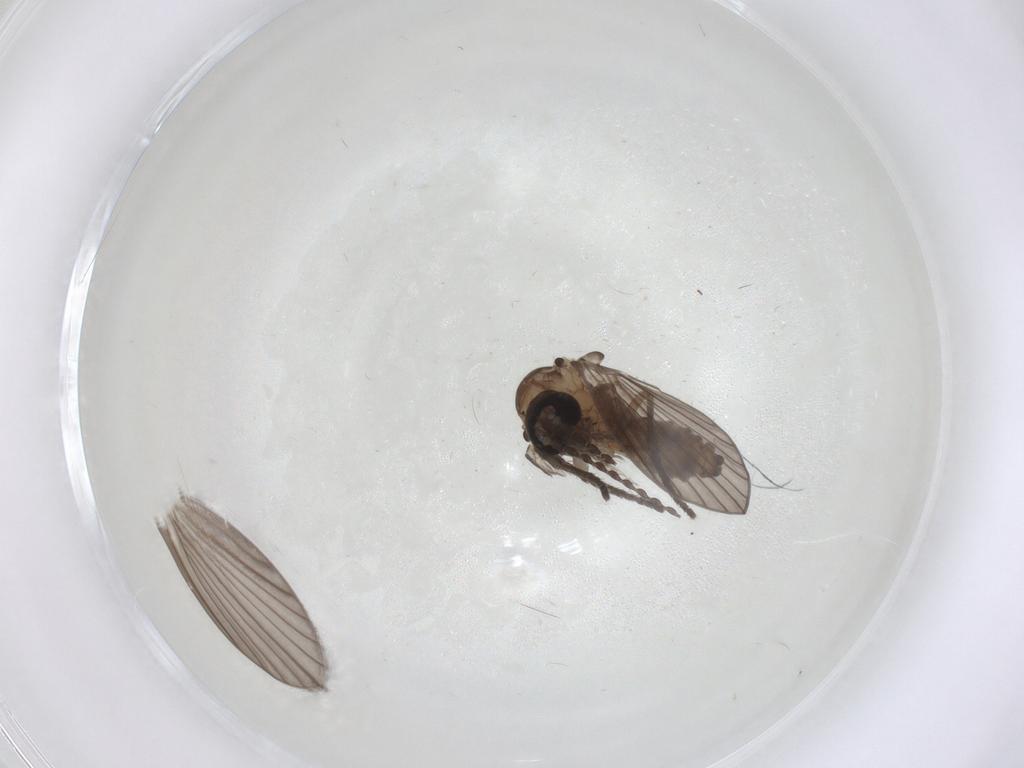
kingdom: Animalia
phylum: Arthropoda
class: Insecta
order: Diptera
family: Psychodidae
